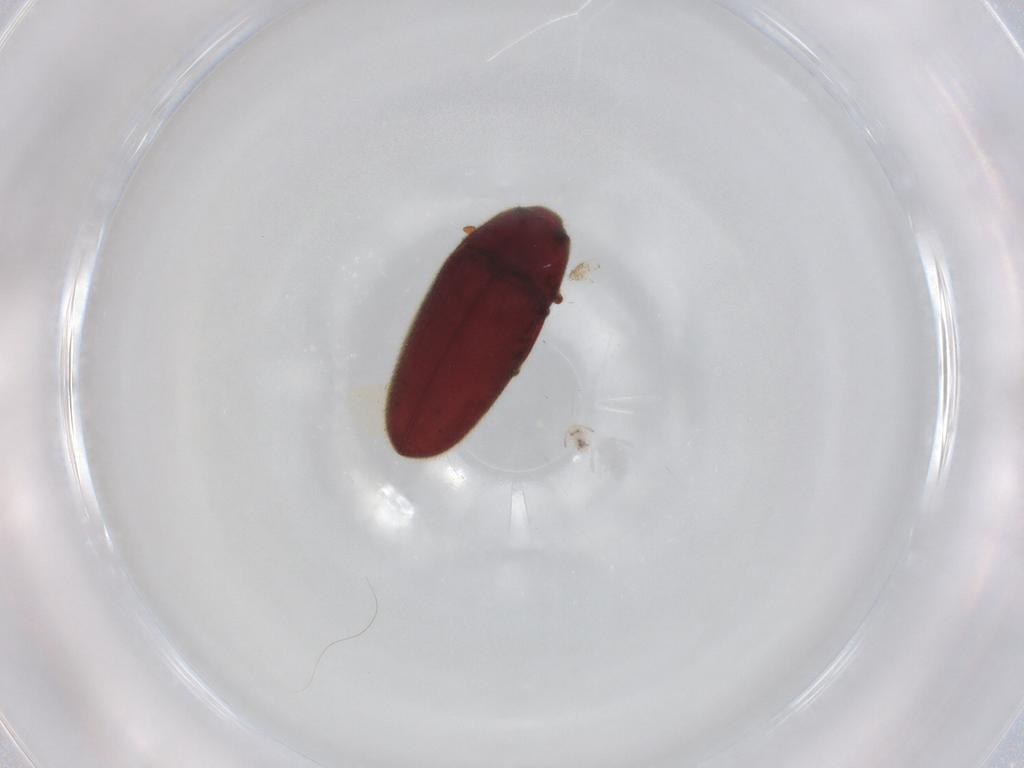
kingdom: Animalia
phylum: Arthropoda
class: Insecta
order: Coleoptera
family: Throscidae
